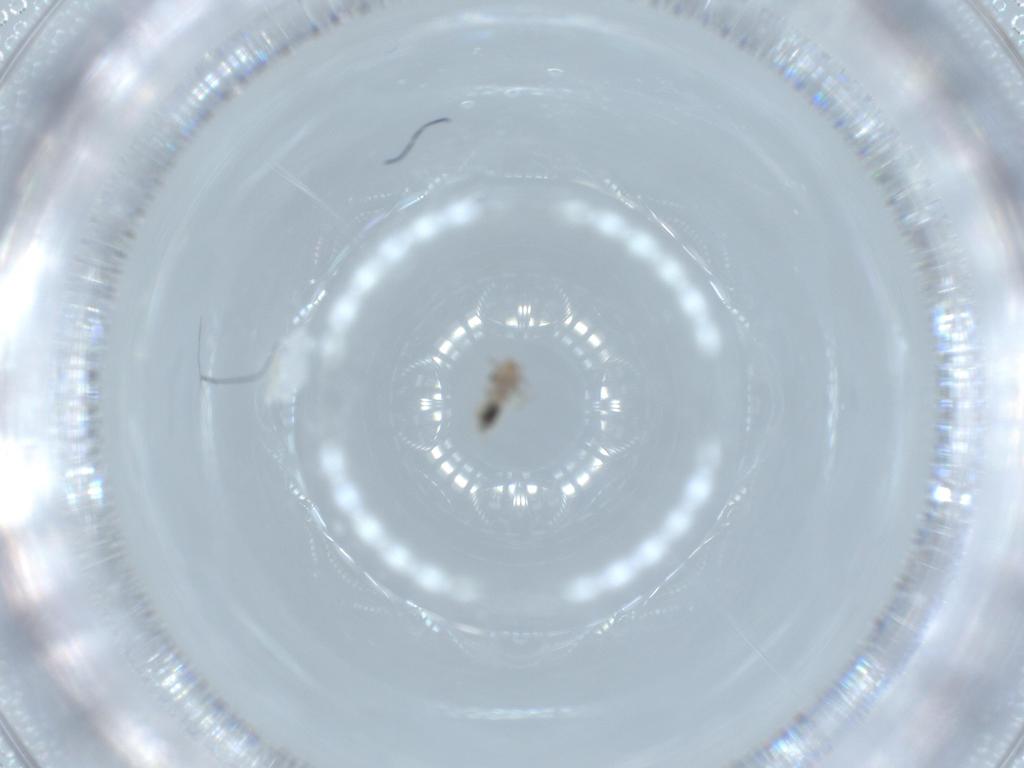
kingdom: Animalia
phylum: Arthropoda
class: Insecta
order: Psocodea
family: Lepidopsocidae
